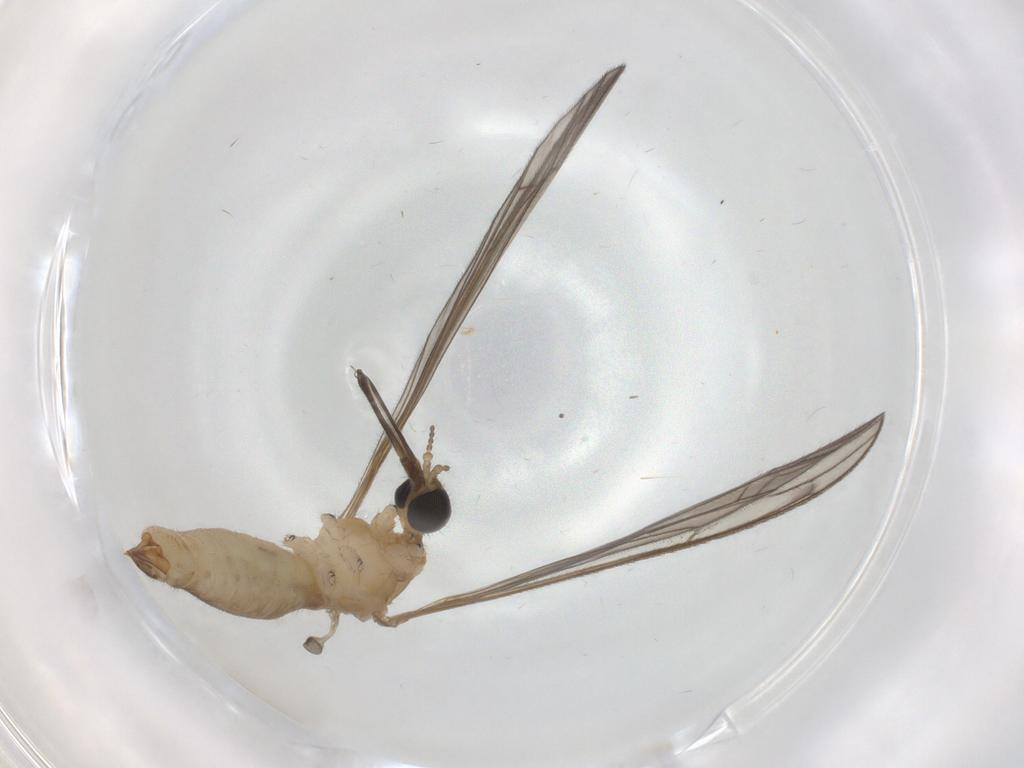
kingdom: Animalia
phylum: Arthropoda
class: Insecta
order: Diptera
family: Limoniidae
